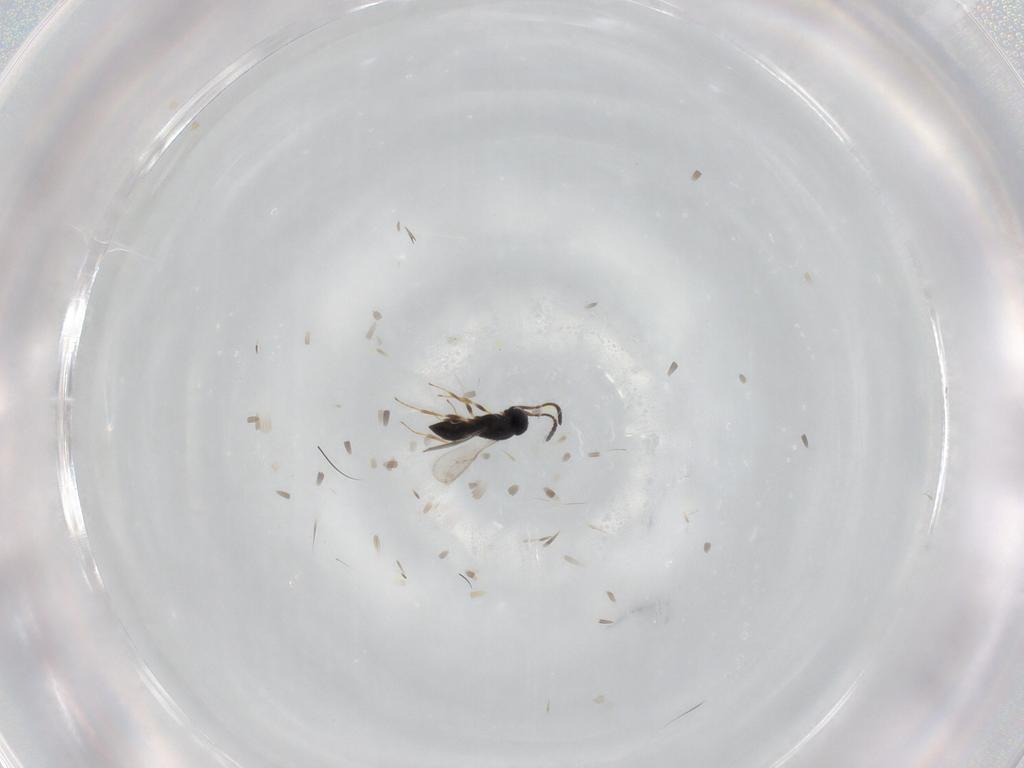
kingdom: Animalia
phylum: Arthropoda
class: Insecta
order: Hymenoptera
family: Scelionidae
